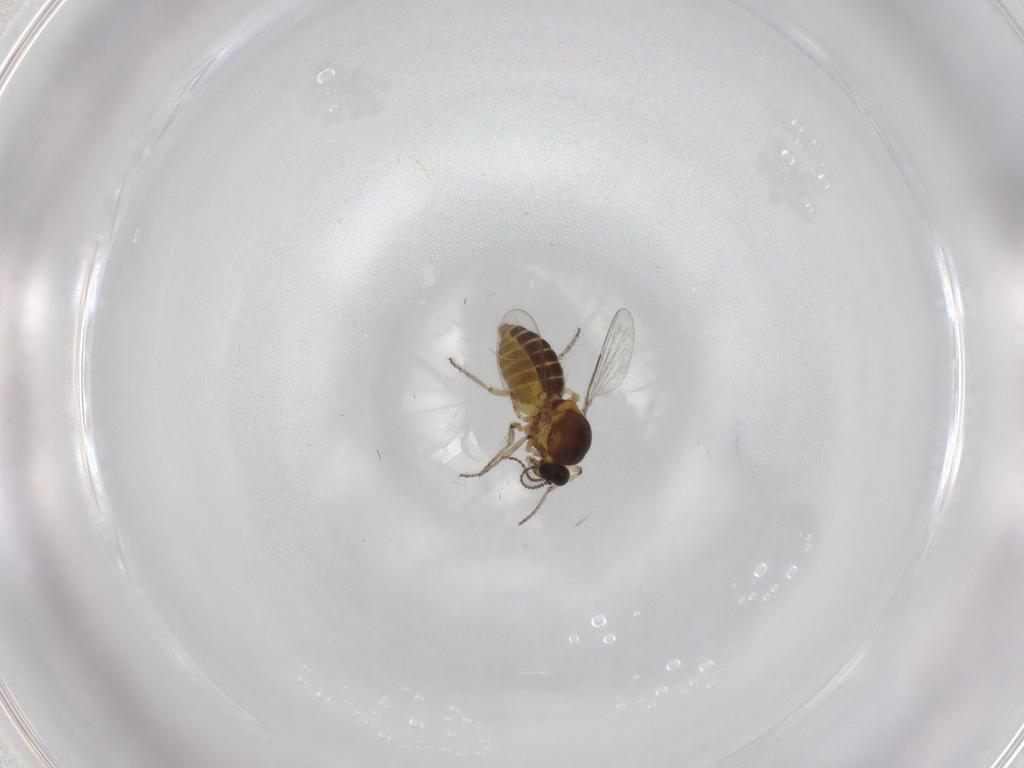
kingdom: Animalia
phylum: Arthropoda
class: Insecta
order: Diptera
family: Ceratopogonidae
